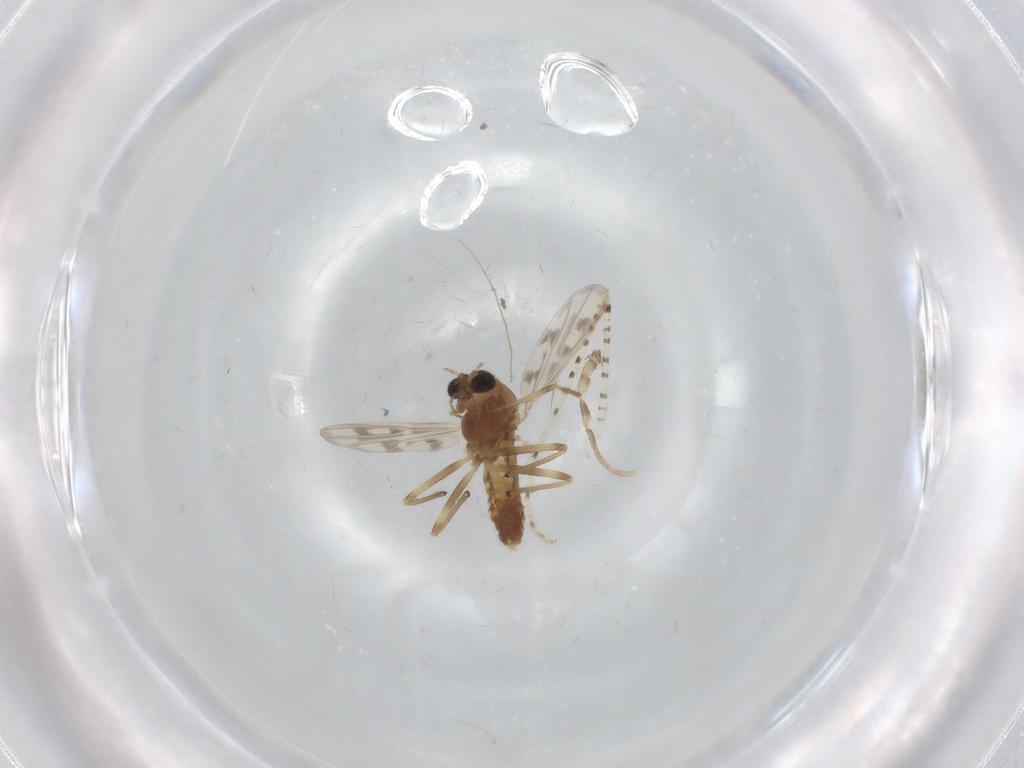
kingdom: Animalia
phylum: Arthropoda
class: Insecta
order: Diptera
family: Chironomidae
